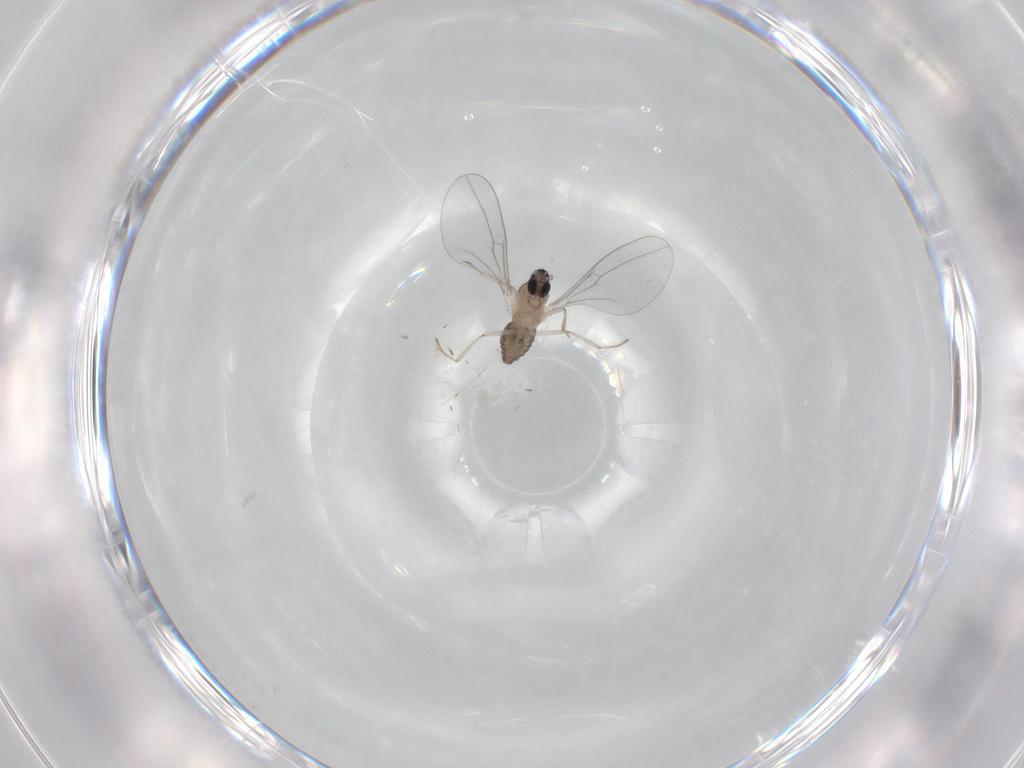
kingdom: Animalia
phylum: Arthropoda
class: Insecta
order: Diptera
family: Cecidomyiidae
